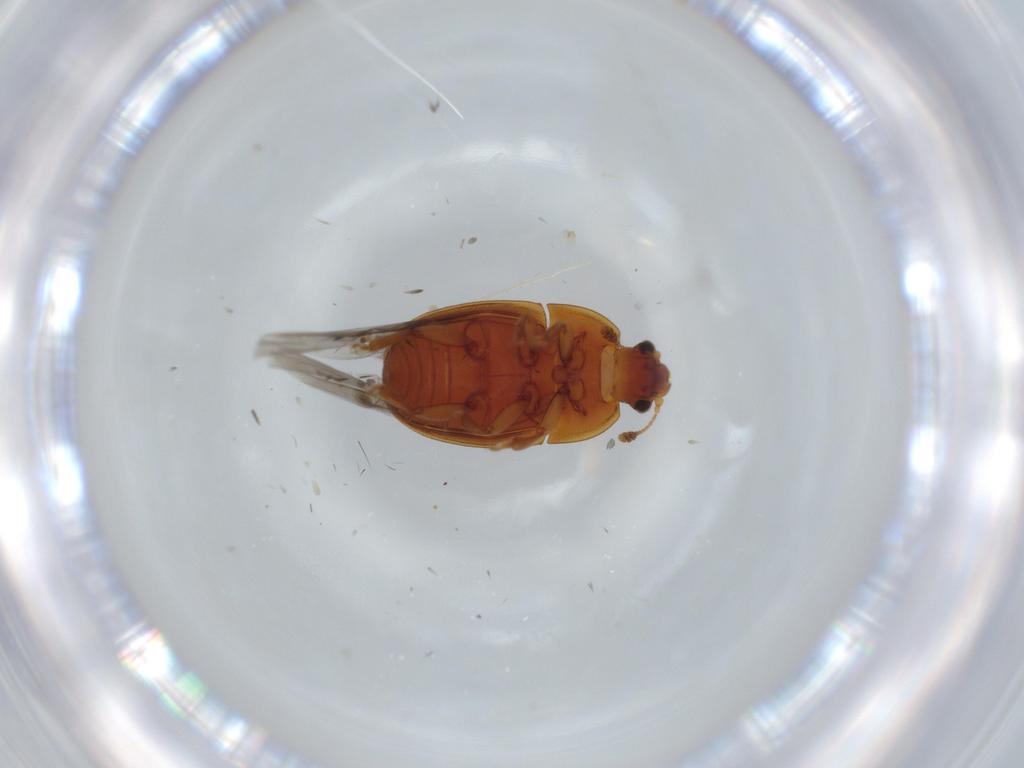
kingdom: Animalia
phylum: Arthropoda
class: Insecta
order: Coleoptera
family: Curculionidae
